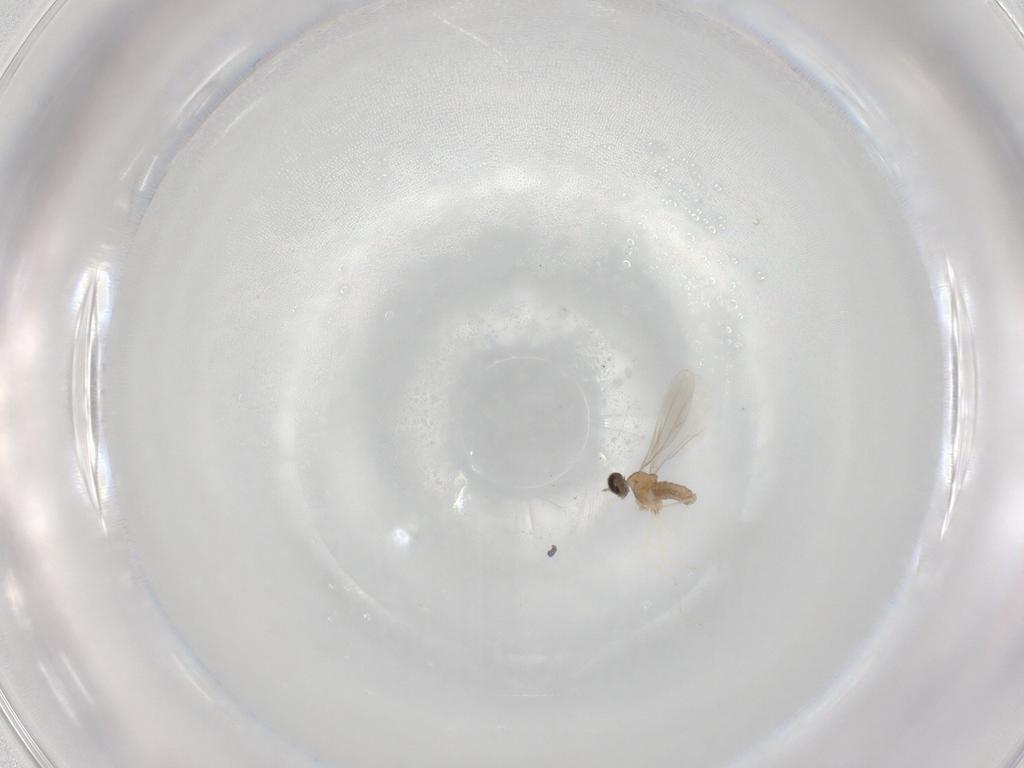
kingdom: Animalia
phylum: Arthropoda
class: Insecta
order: Diptera
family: Cecidomyiidae
